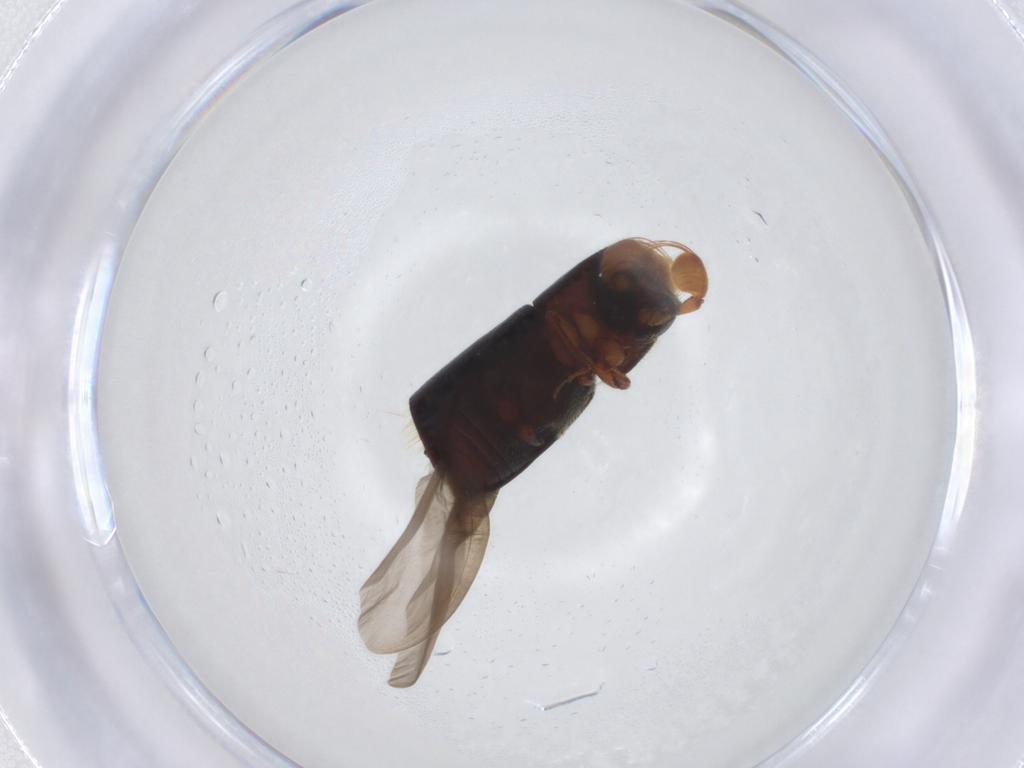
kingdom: Animalia
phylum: Arthropoda
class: Insecta
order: Coleoptera
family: Curculionidae
